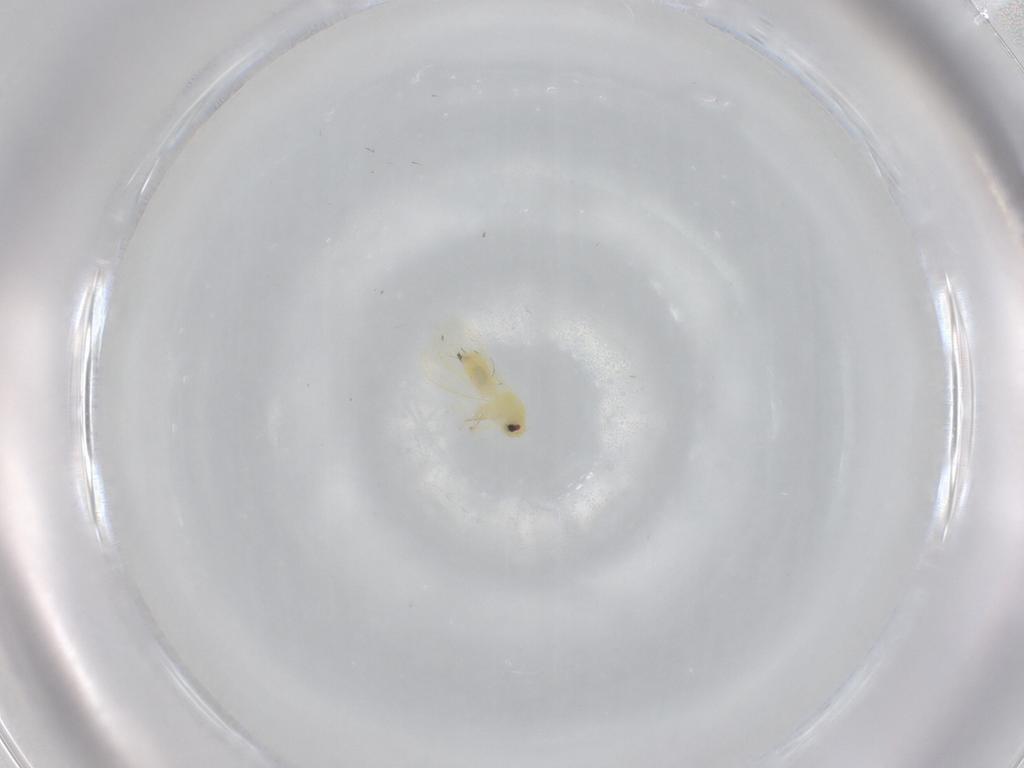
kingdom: Animalia
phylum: Arthropoda
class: Insecta
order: Hemiptera
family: Aleyrodidae
